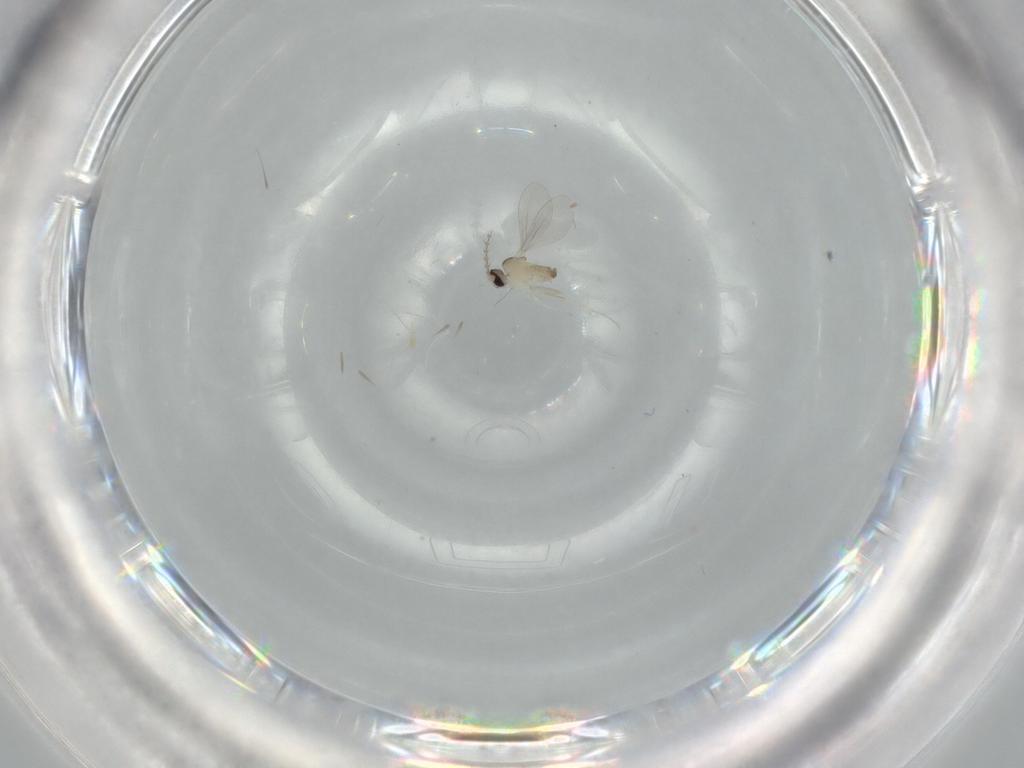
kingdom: Animalia
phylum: Arthropoda
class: Insecta
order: Diptera
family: Cecidomyiidae
